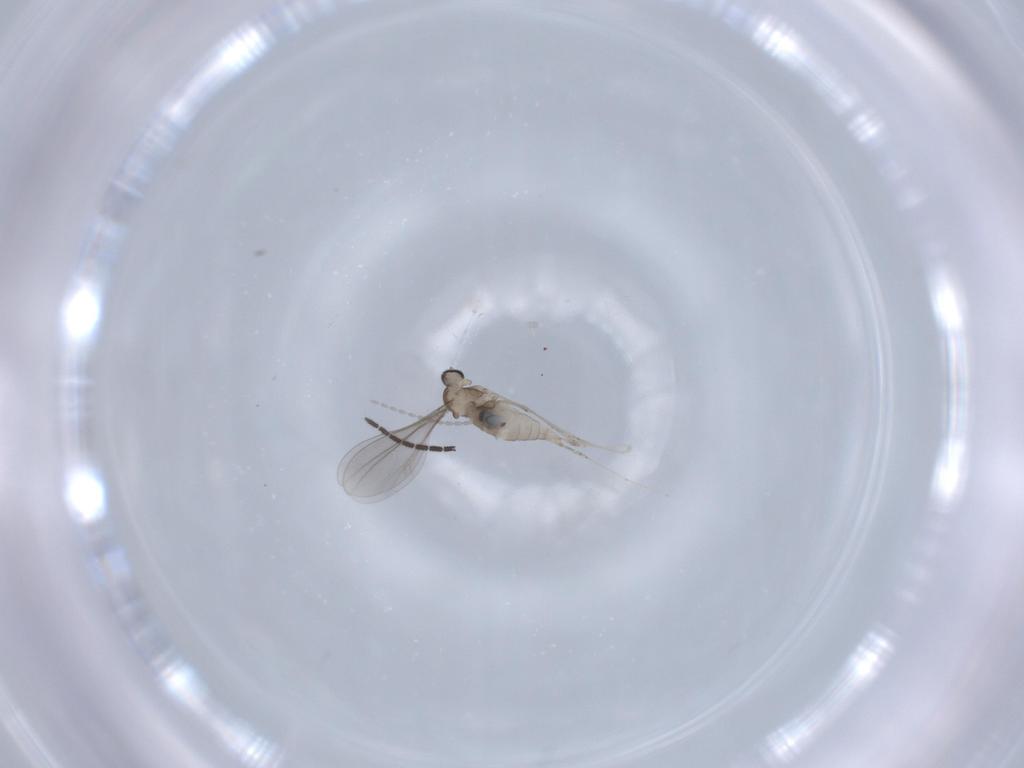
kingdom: Animalia
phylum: Arthropoda
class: Insecta
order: Diptera
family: Cecidomyiidae
